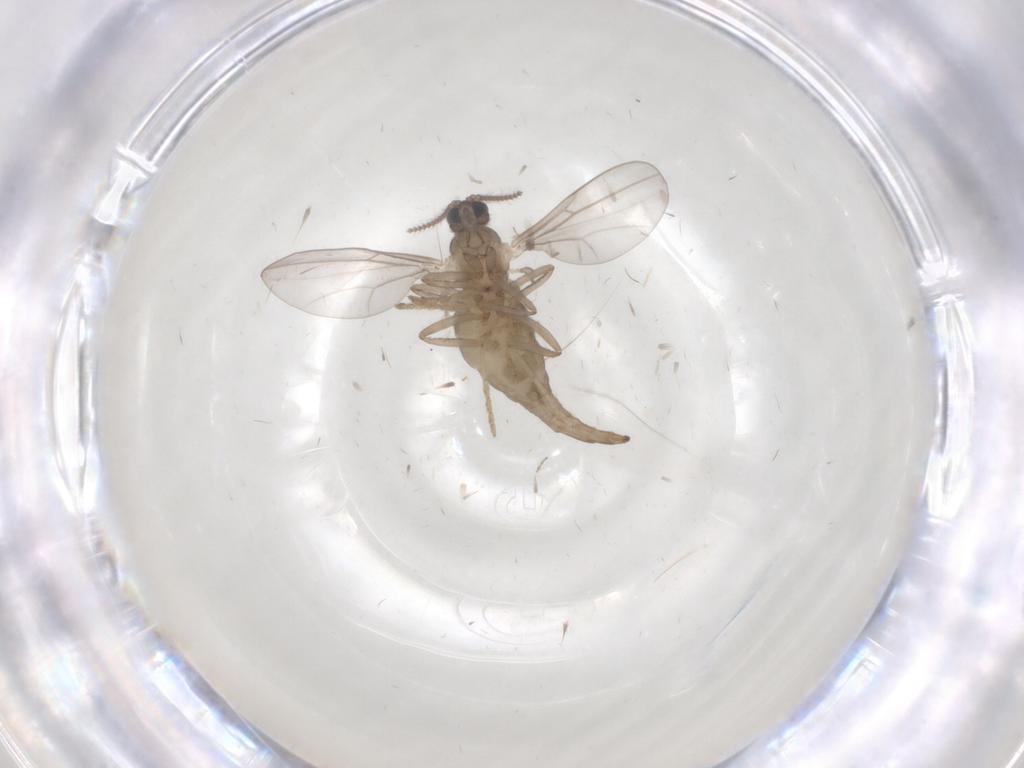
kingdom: Animalia
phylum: Arthropoda
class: Insecta
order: Diptera
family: Cecidomyiidae
